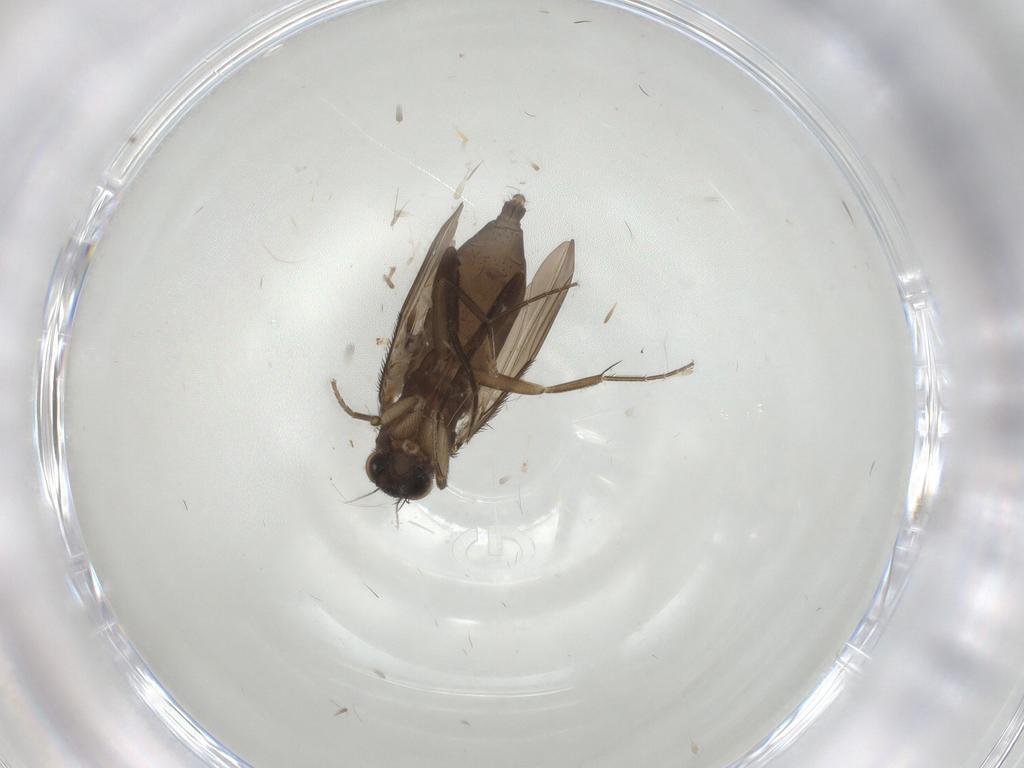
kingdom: Animalia
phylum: Arthropoda
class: Insecta
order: Diptera
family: Phoridae
